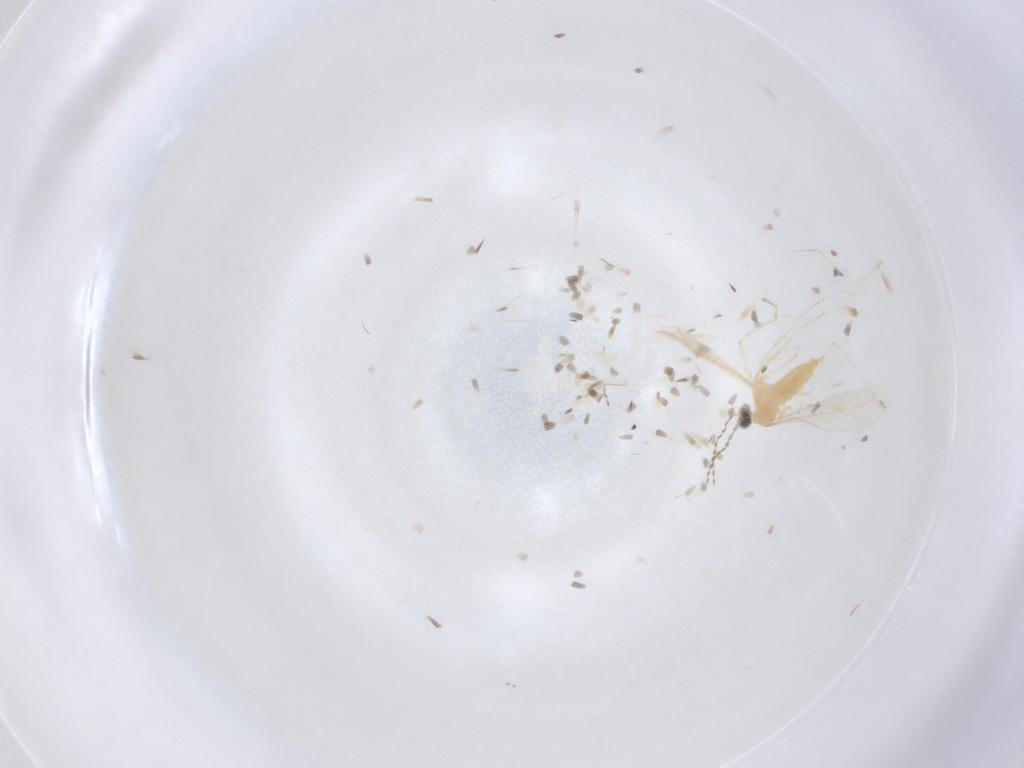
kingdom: Animalia
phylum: Arthropoda
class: Insecta
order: Diptera
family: Cecidomyiidae
